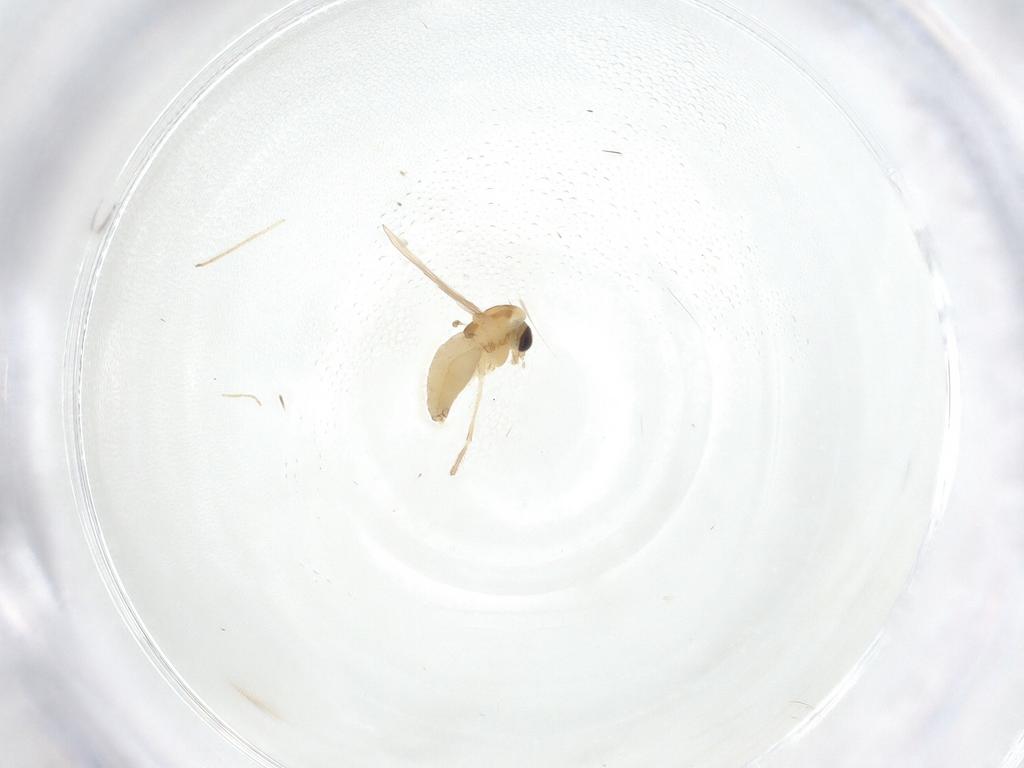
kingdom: Animalia
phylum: Arthropoda
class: Insecta
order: Diptera
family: Chironomidae
